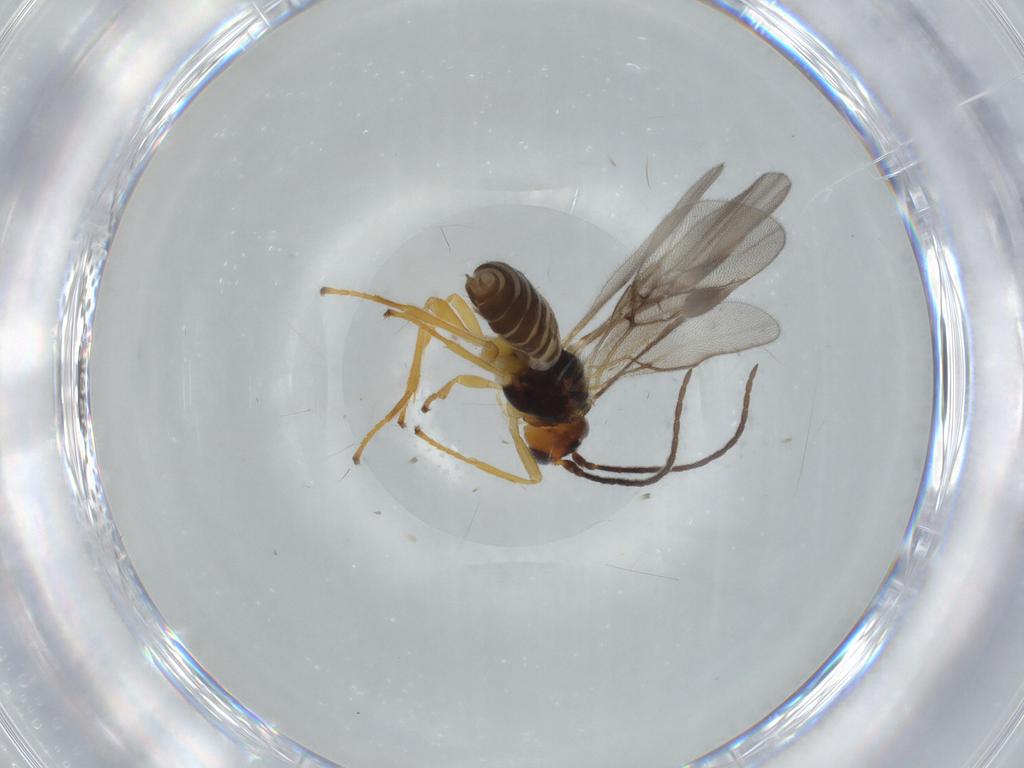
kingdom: Animalia
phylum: Arthropoda
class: Insecta
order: Hymenoptera
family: Braconidae
